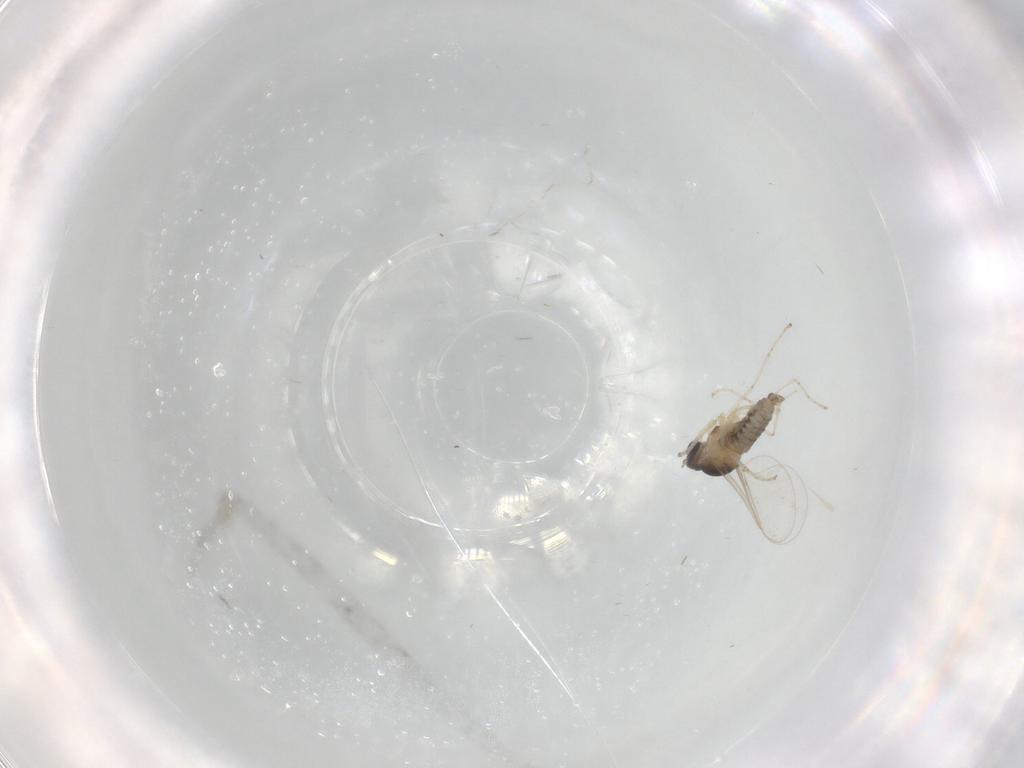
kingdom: Animalia
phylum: Arthropoda
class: Insecta
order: Diptera
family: Cecidomyiidae
